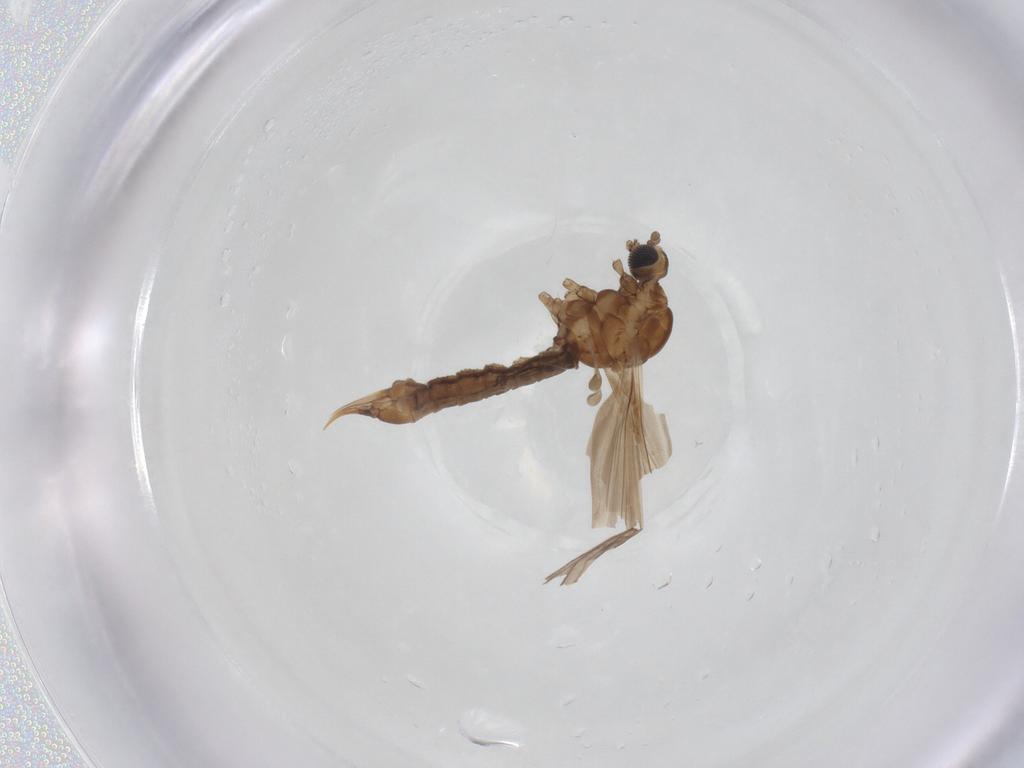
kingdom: Animalia
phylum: Arthropoda
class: Insecta
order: Diptera
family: Limoniidae
